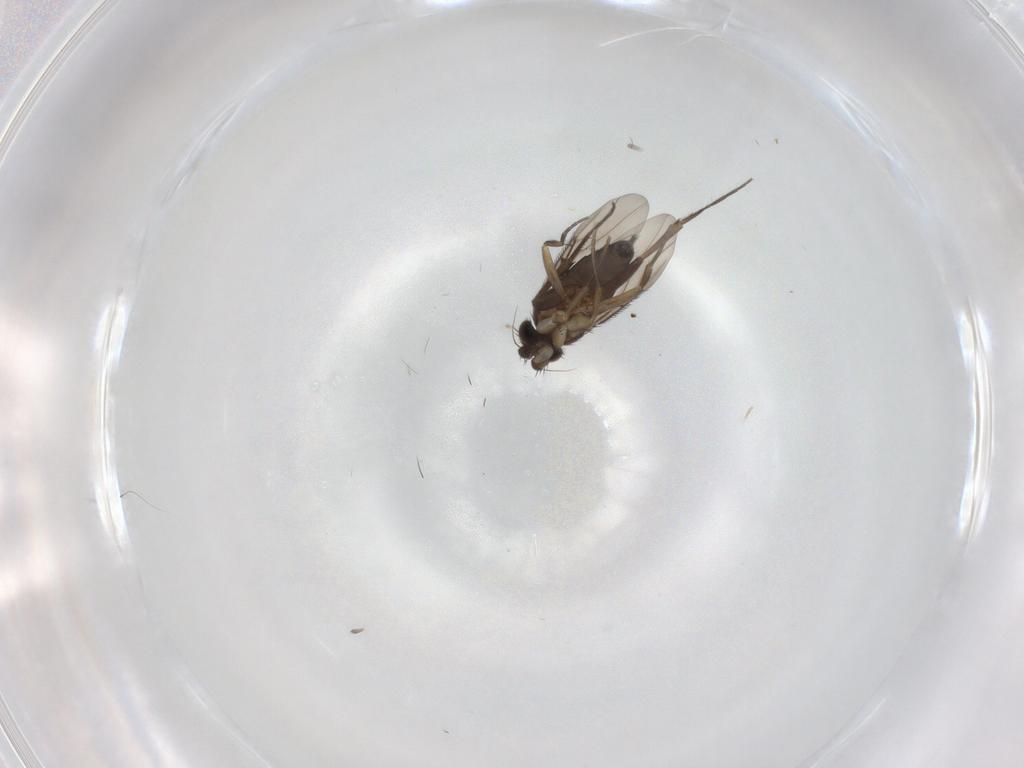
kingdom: Animalia
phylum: Arthropoda
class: Insecta
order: Diptera
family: Phoridae
